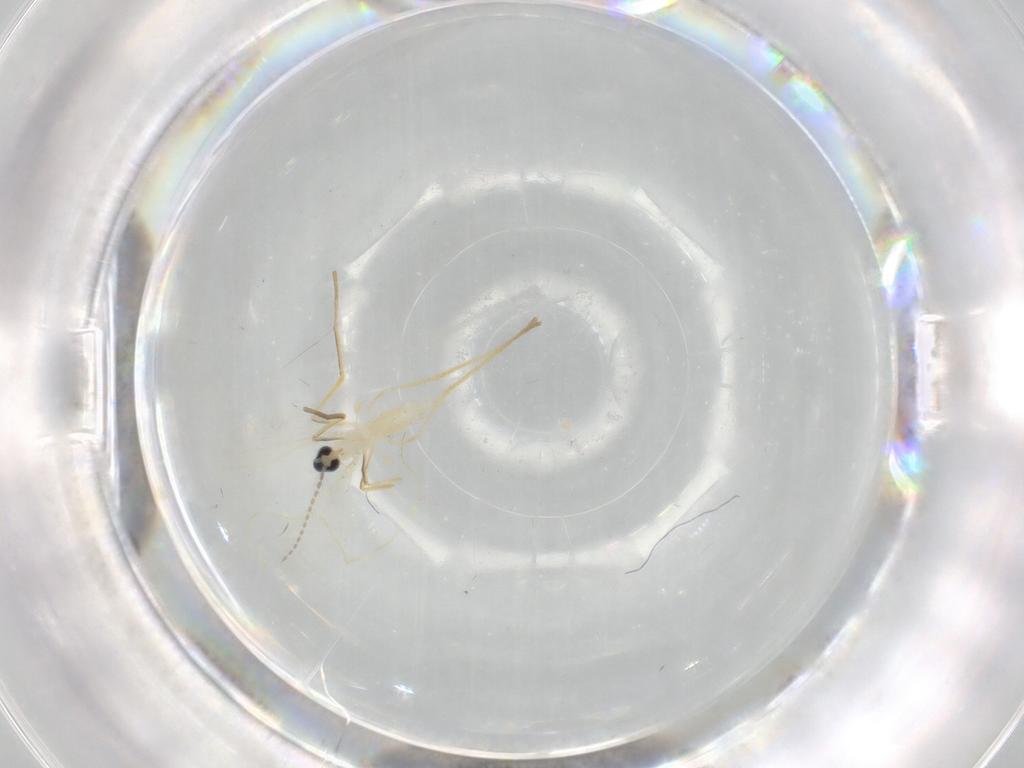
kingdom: Animalia
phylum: Arthropoda
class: Insecta
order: Diptera
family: Cecidomyiidae
